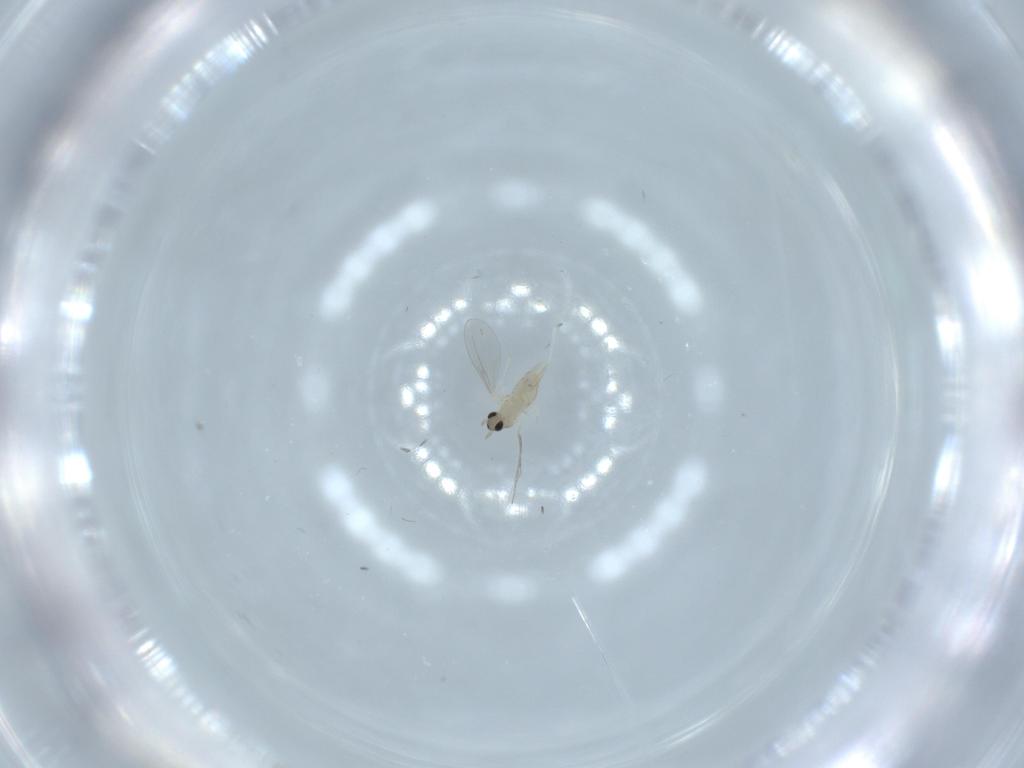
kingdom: Animalia
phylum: Arthropoda
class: Insecta
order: Diptera
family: Cecidomyiidae
